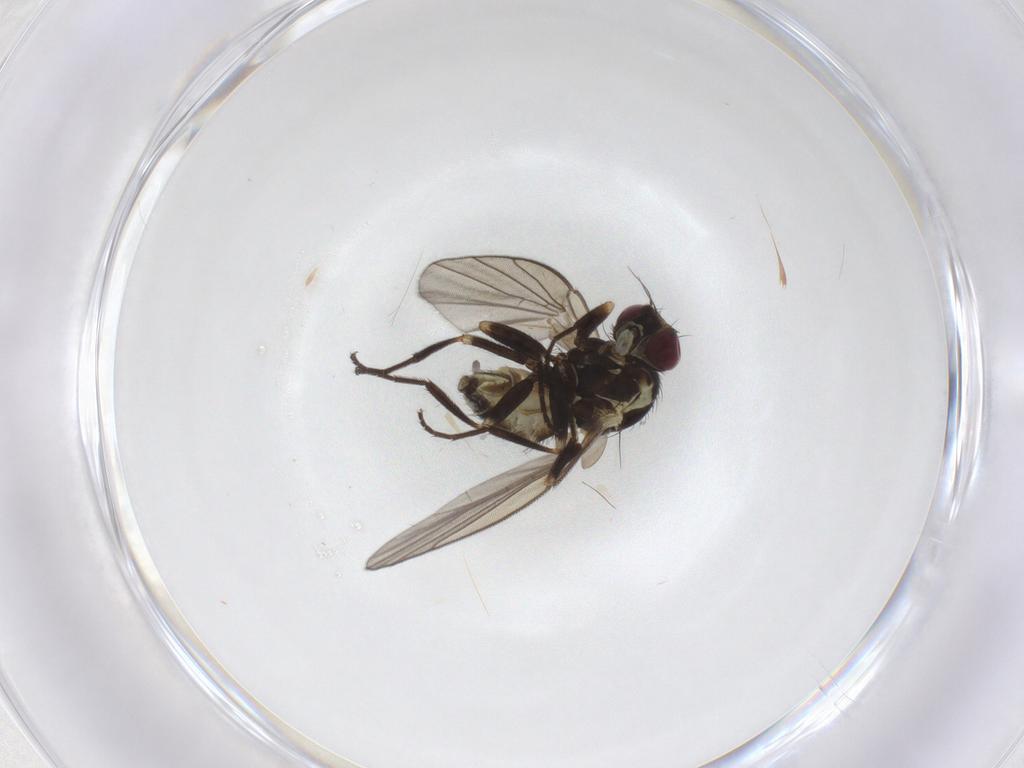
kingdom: Animalia
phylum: Arthropoda
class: Insecta
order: Diptera
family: Agromyzidae
